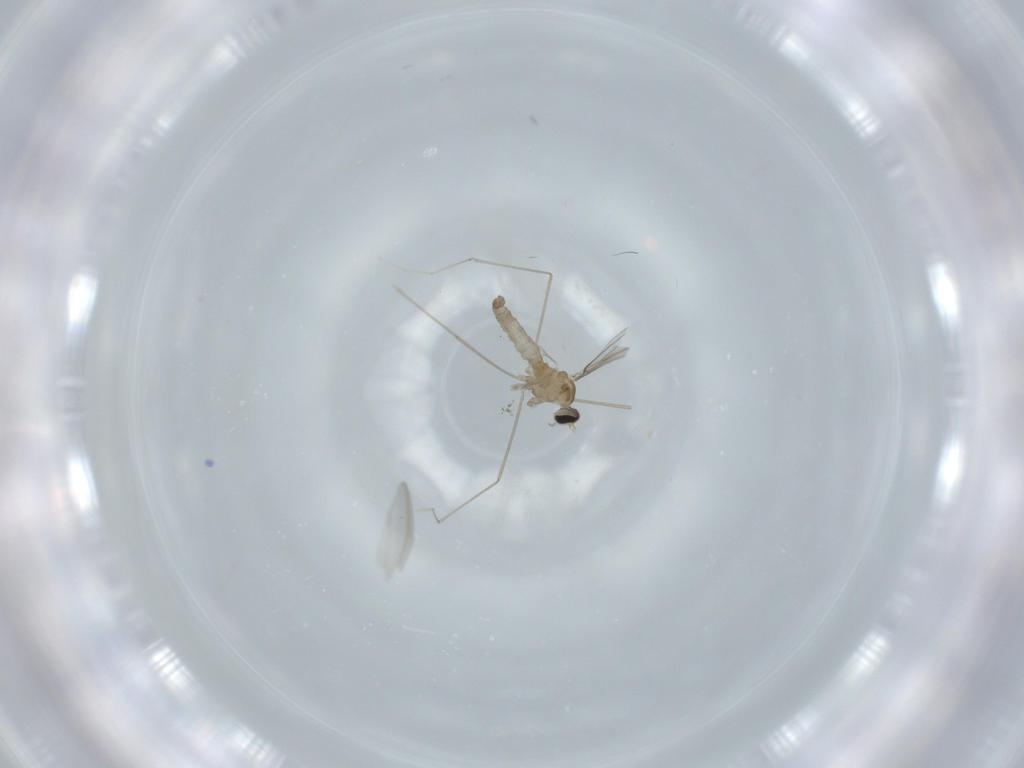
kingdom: Animalia
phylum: Arthropoda
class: Insecta
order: Diptera
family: Cecidomyiidae
